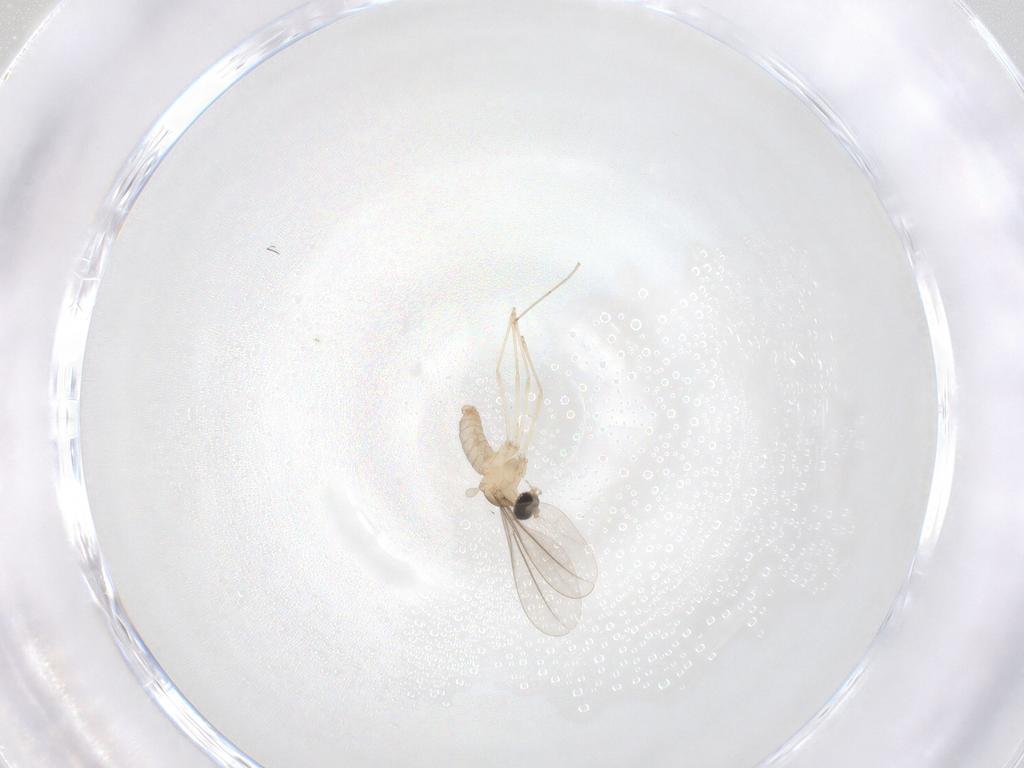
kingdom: Animalia
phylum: Arthropoda
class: Insecta
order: Diptera
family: Cecidomyiidae
